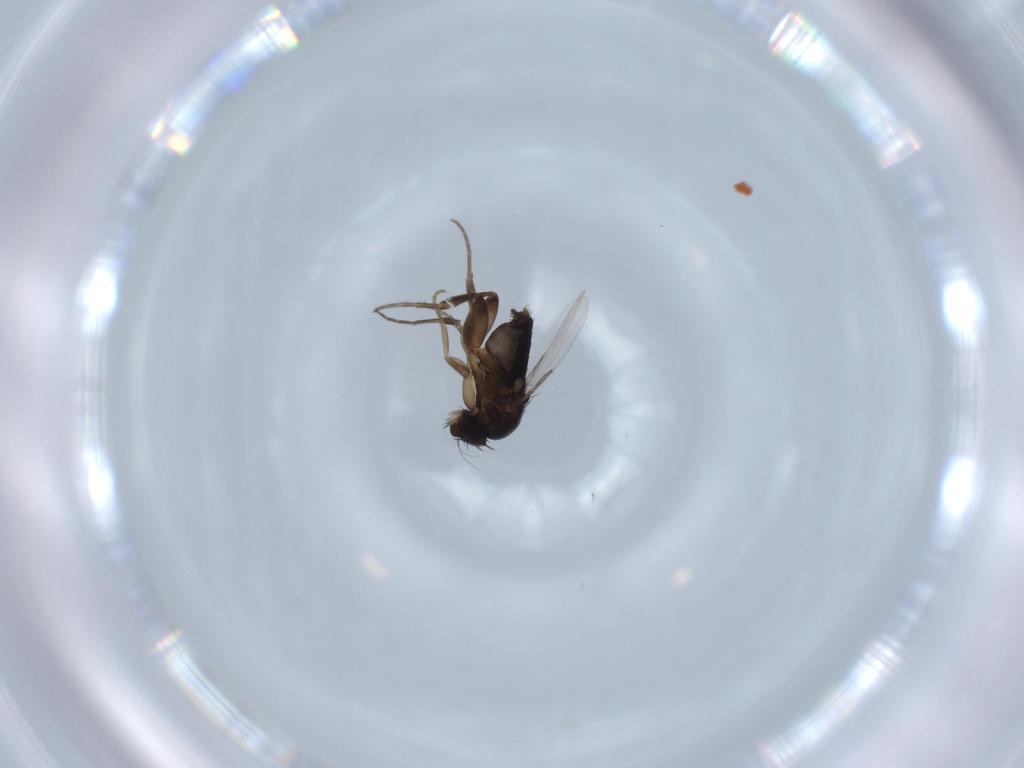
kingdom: Animalia
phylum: Arthropoda
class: Insecta
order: Diptera
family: Phoridae
